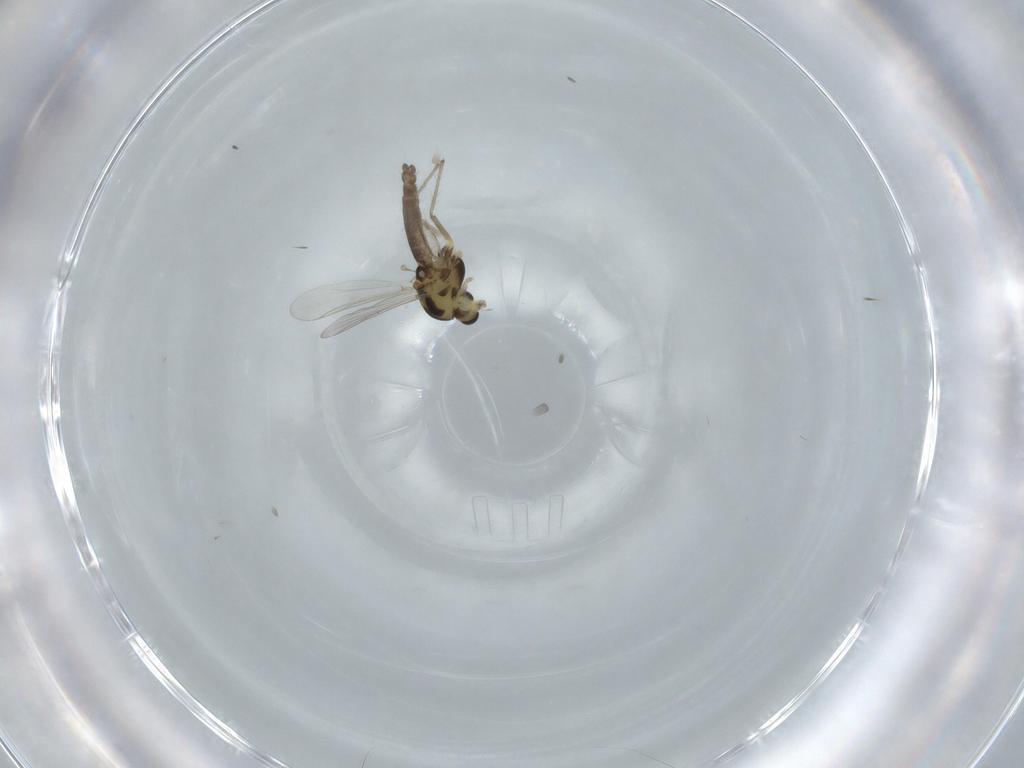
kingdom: Animalia
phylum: Arthropoda
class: Insecta
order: Diptera
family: Chironomidae
